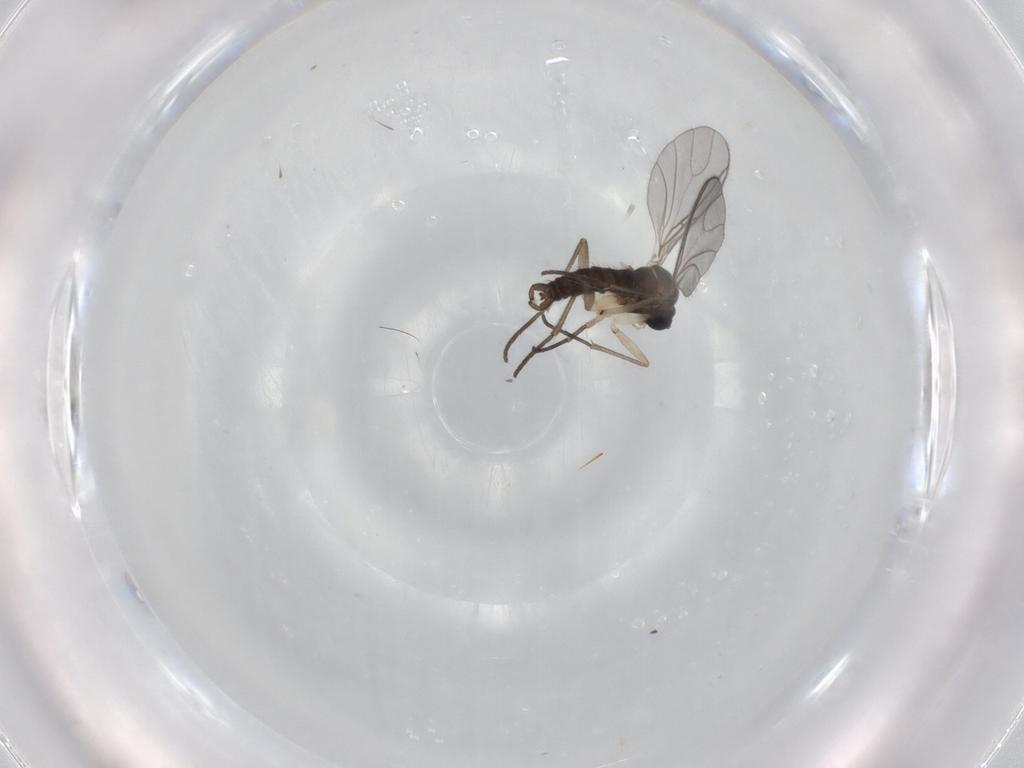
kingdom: Animalia
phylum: Arthropoda
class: Insecta
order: Diptera
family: Sciaridae
